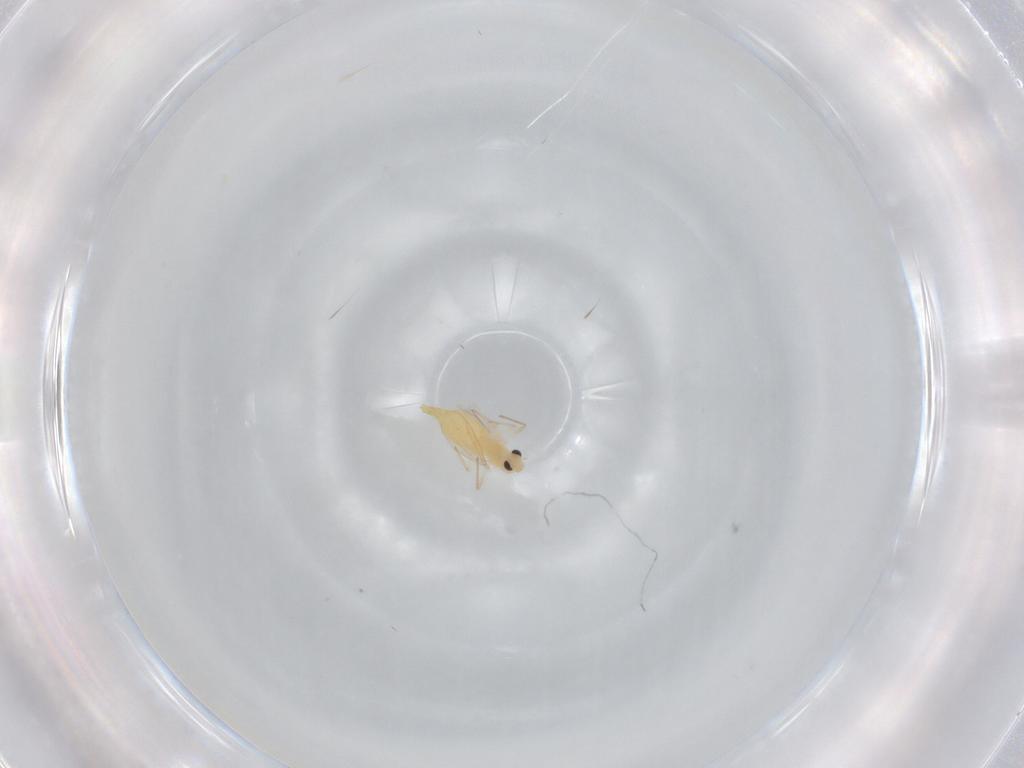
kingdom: Animalia
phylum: Arthropoda
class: Insecta
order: Diptera
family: Chironomidae
